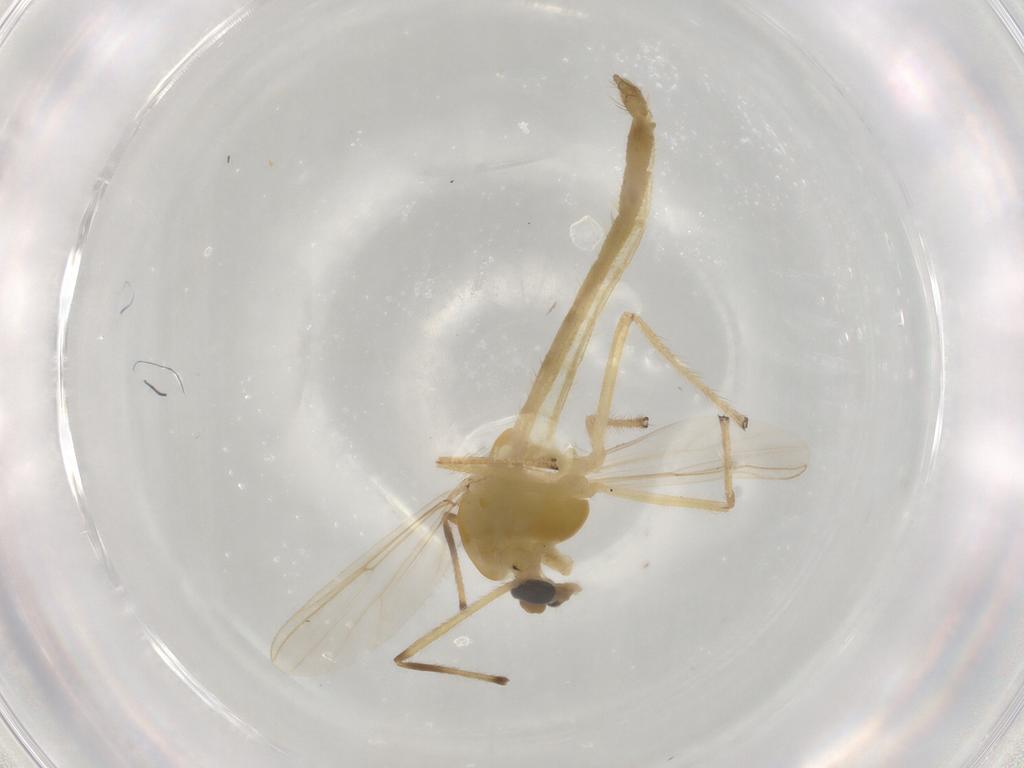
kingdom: Animalia
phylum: Arthropoda
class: Insecta
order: Diptera
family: Chironomidae
